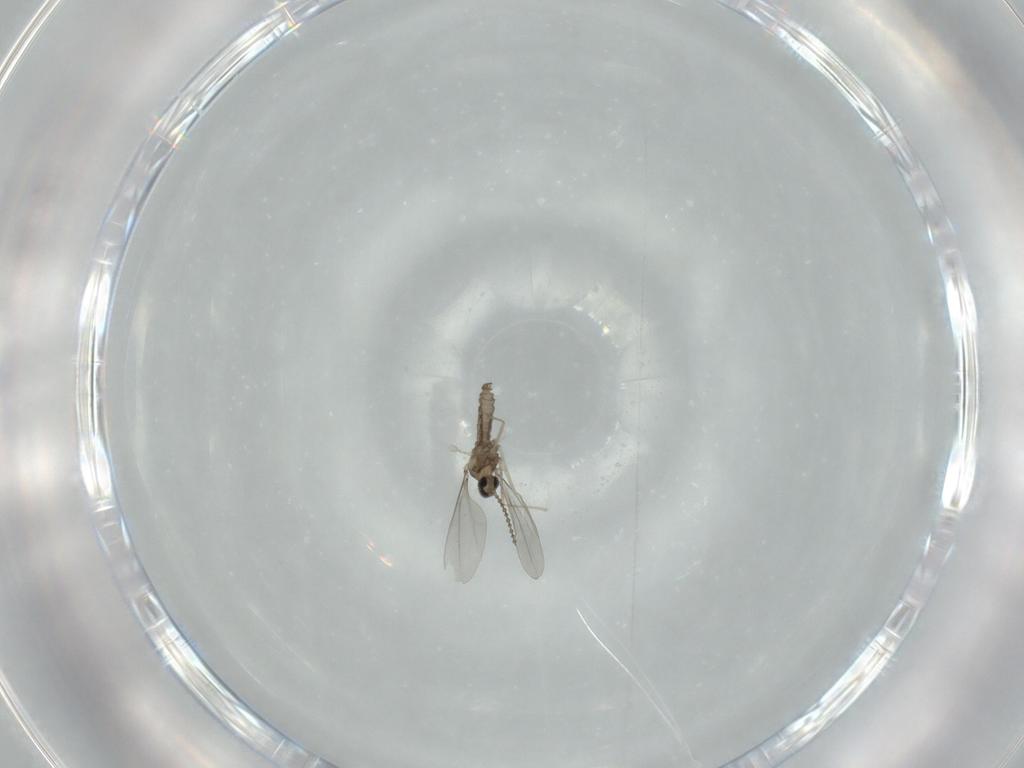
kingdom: Animalia
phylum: Arthropoda
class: Insecta
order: Diptera
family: Cecidomyiidae
